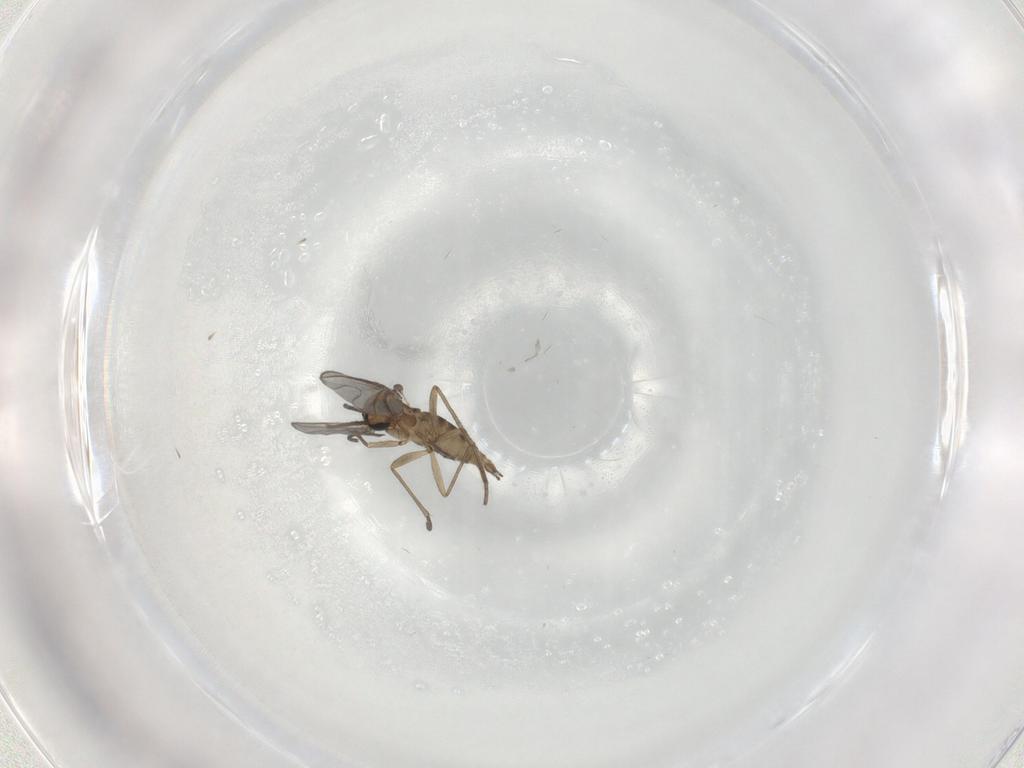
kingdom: Animalia
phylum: Arthropoda
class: Insecta
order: Diptera
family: Sciaridae
